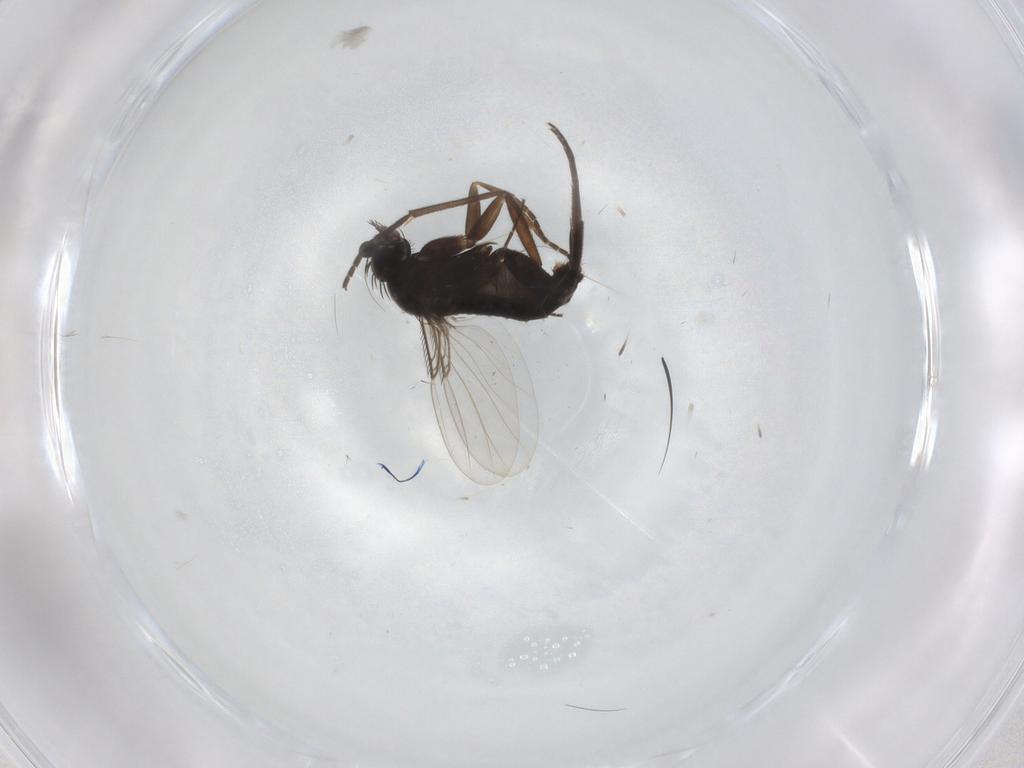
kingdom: Animalia
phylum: Arthropoda
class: Insecta
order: Diptera
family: Phoridae
